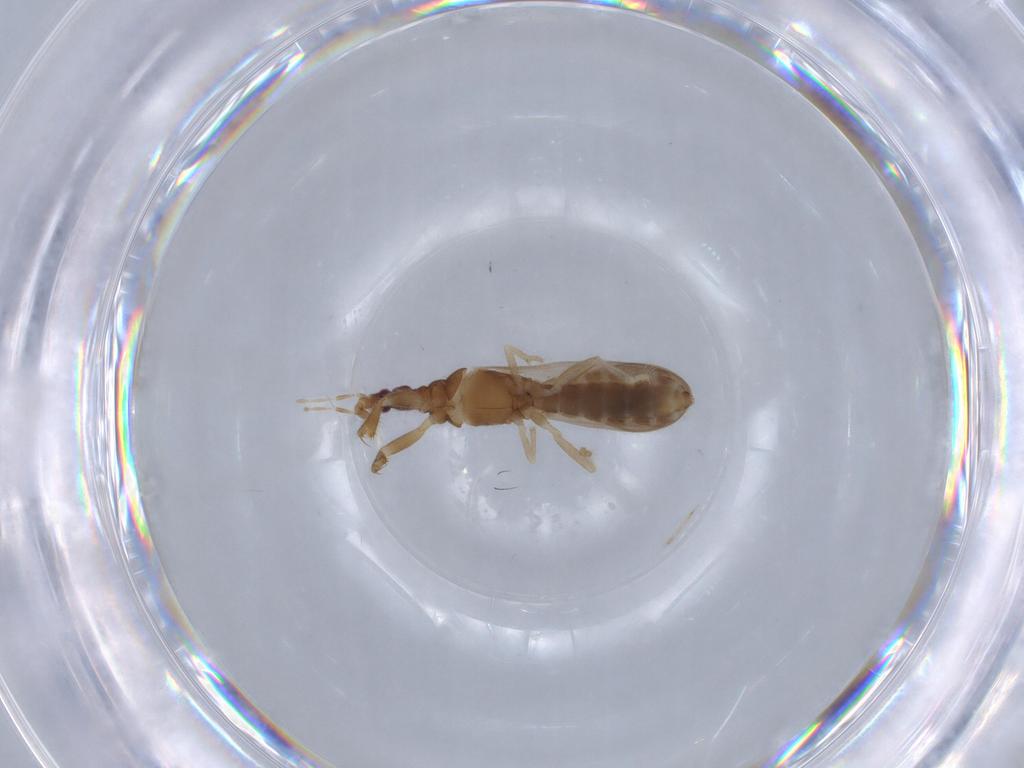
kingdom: Animalia
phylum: Arthropoda
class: Insecta
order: Hemiptera
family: Enicocephalidae
